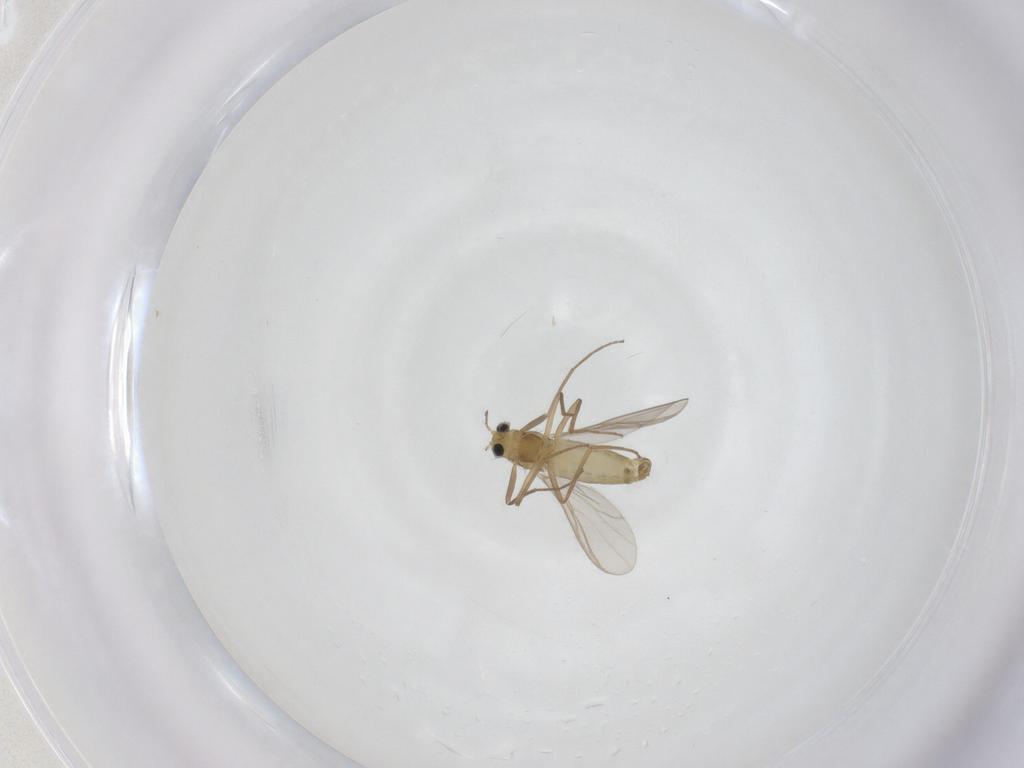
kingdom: Animalia
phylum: Arthropoda
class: Insecta
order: Diptera
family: Chironomidae
